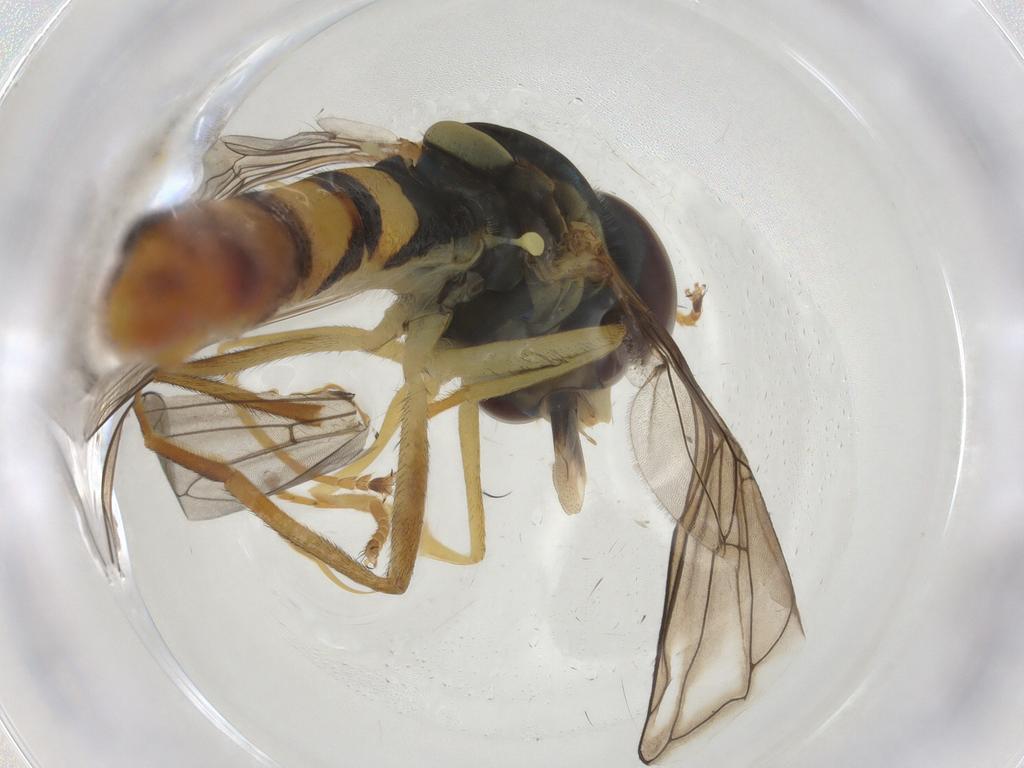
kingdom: Animalia
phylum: Arthropoda
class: Insecta
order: Diptera
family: Syrphidae
